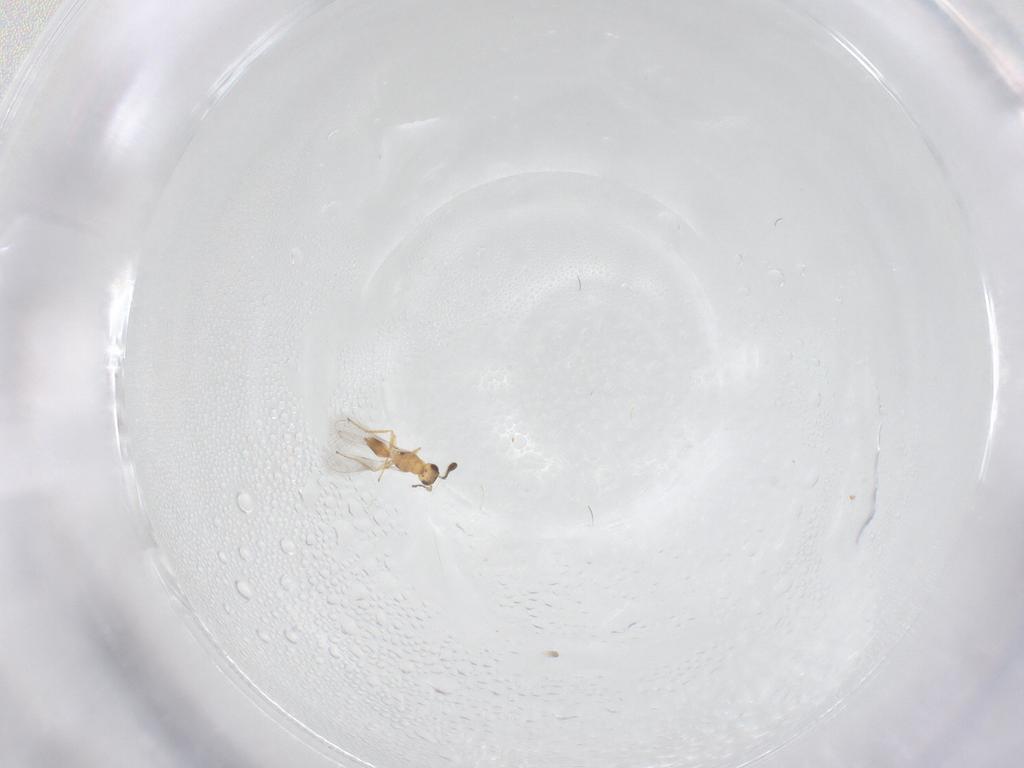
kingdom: Animalia
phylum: Arthropoda
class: Insecta
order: Hymenoptera
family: Mymaridae
